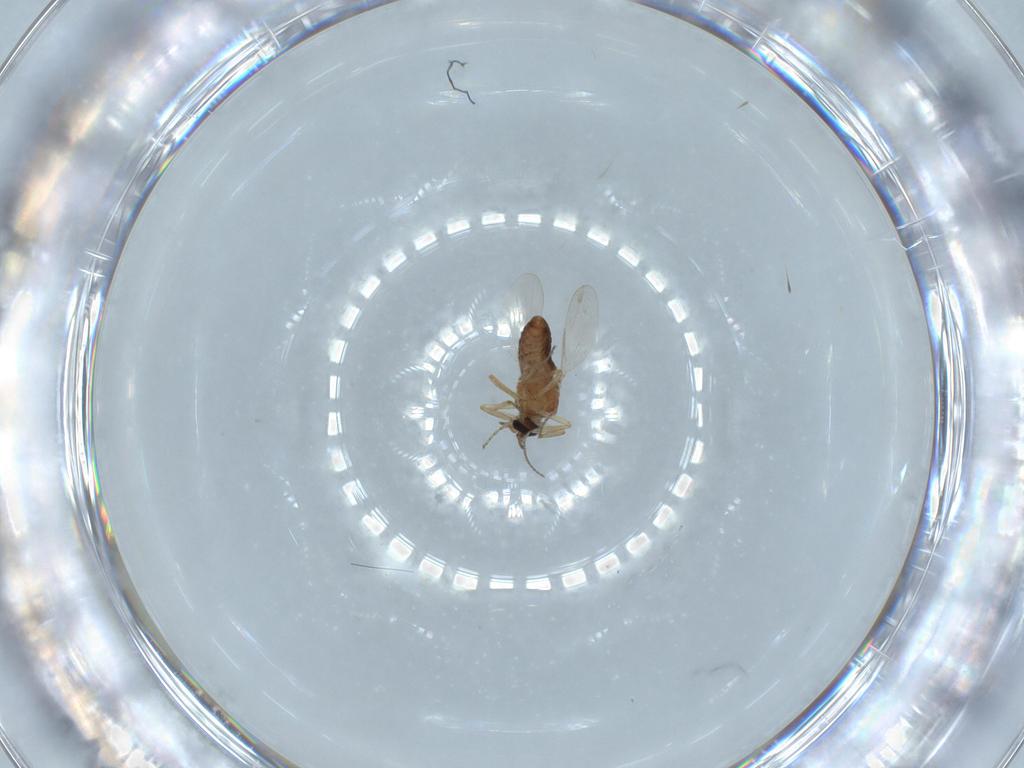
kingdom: Animalia
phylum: Arthropoda
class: Insecta
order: Diptera
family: Ceratopogonidae
